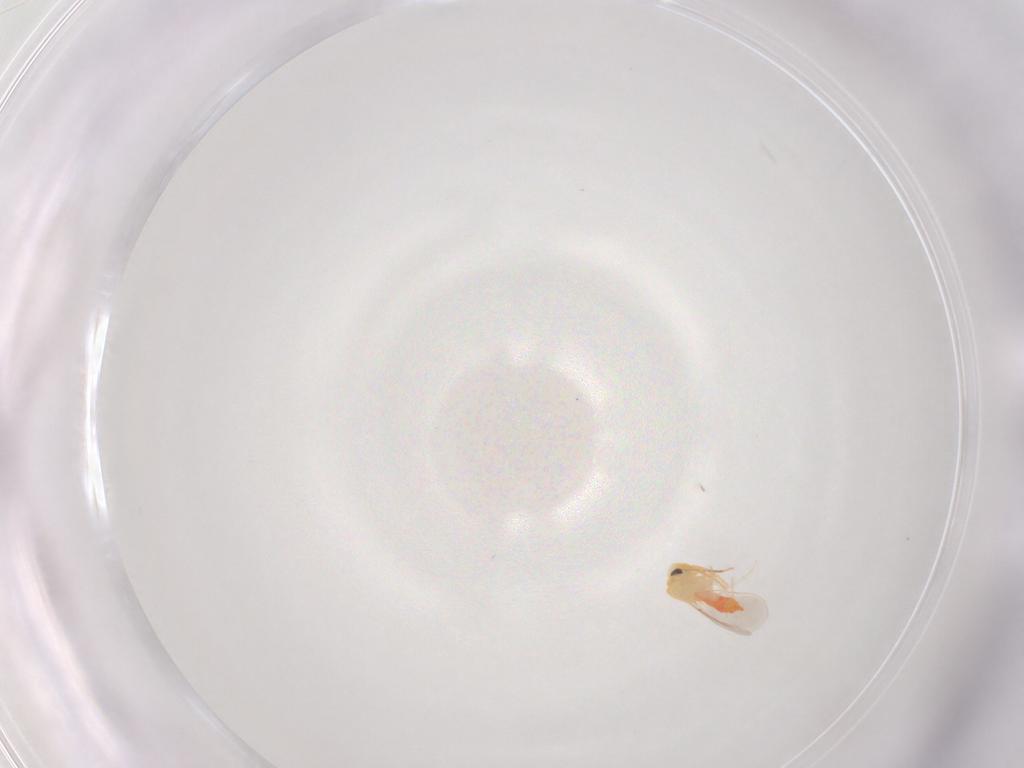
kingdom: Animalia
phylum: Arthropoda
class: Insecta
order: Hemiptera
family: Aleyrodidae
